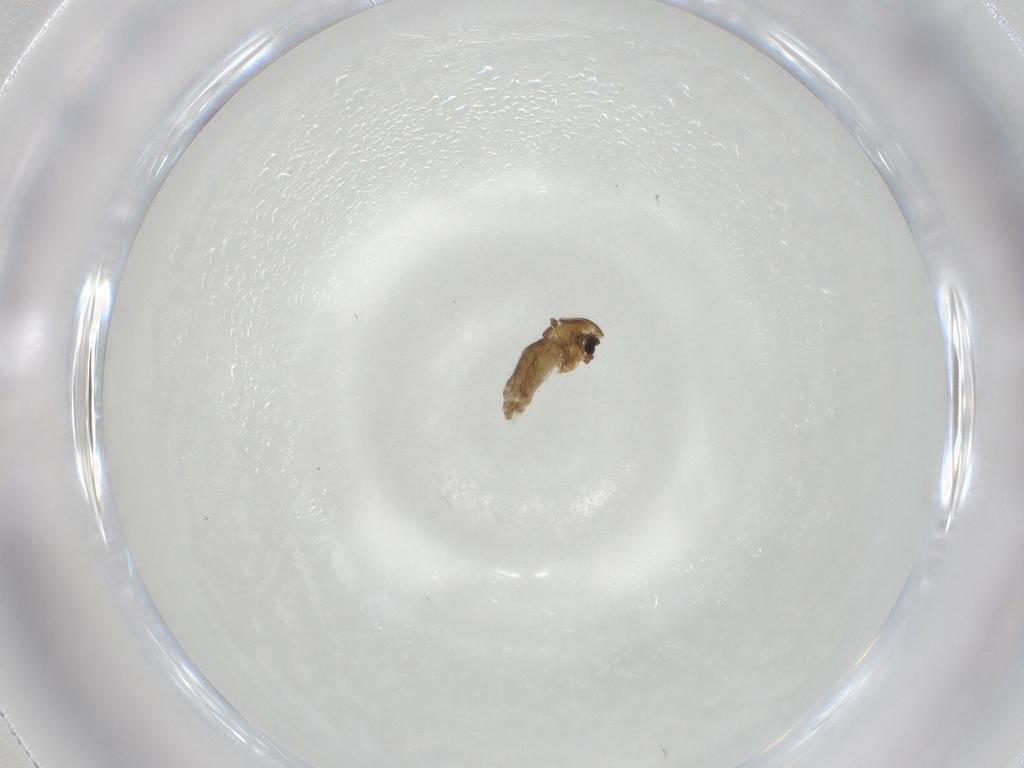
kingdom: Animalia
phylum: Arthropoda
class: Insecta
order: Diptera
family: Chironomidae
